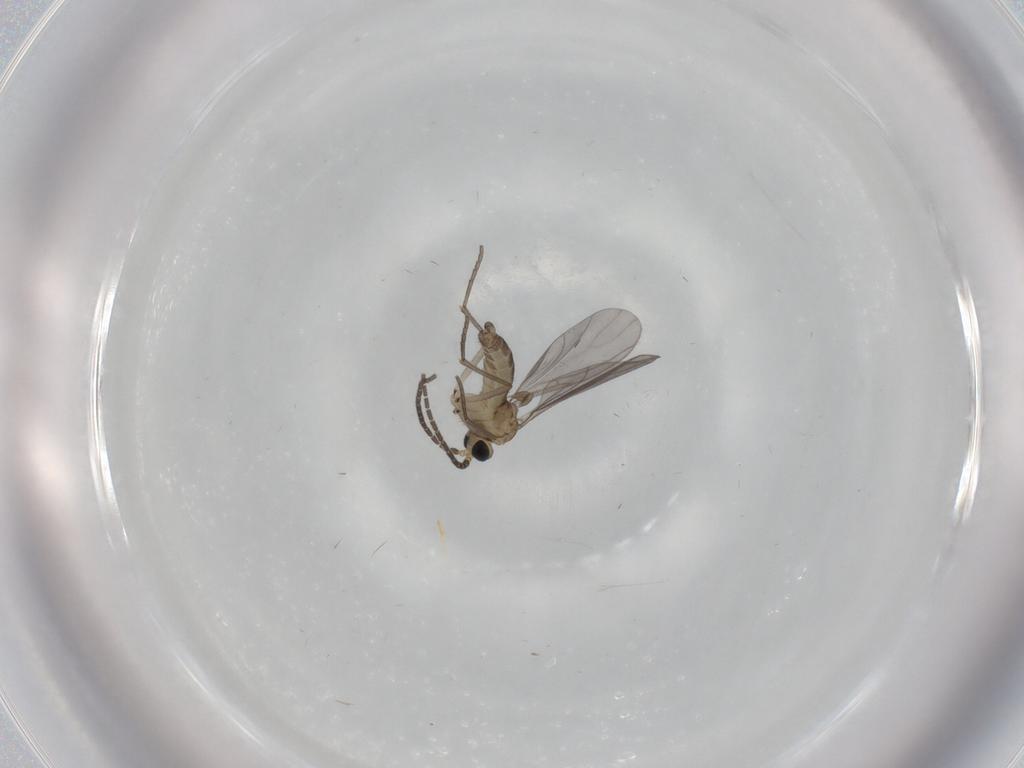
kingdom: Animalia
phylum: Arthropoda
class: Insecta
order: Diptera
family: Sciaridae
